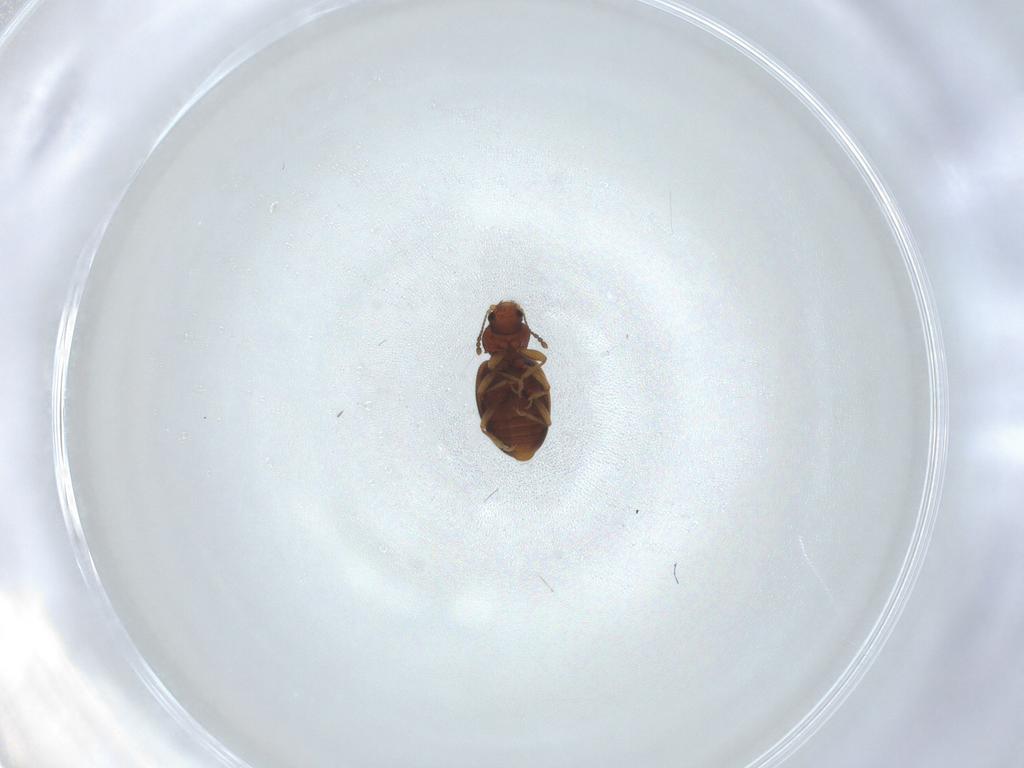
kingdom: Animalia
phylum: Arthropoda
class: Insecta
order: Coleoptera
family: Latridiidae
